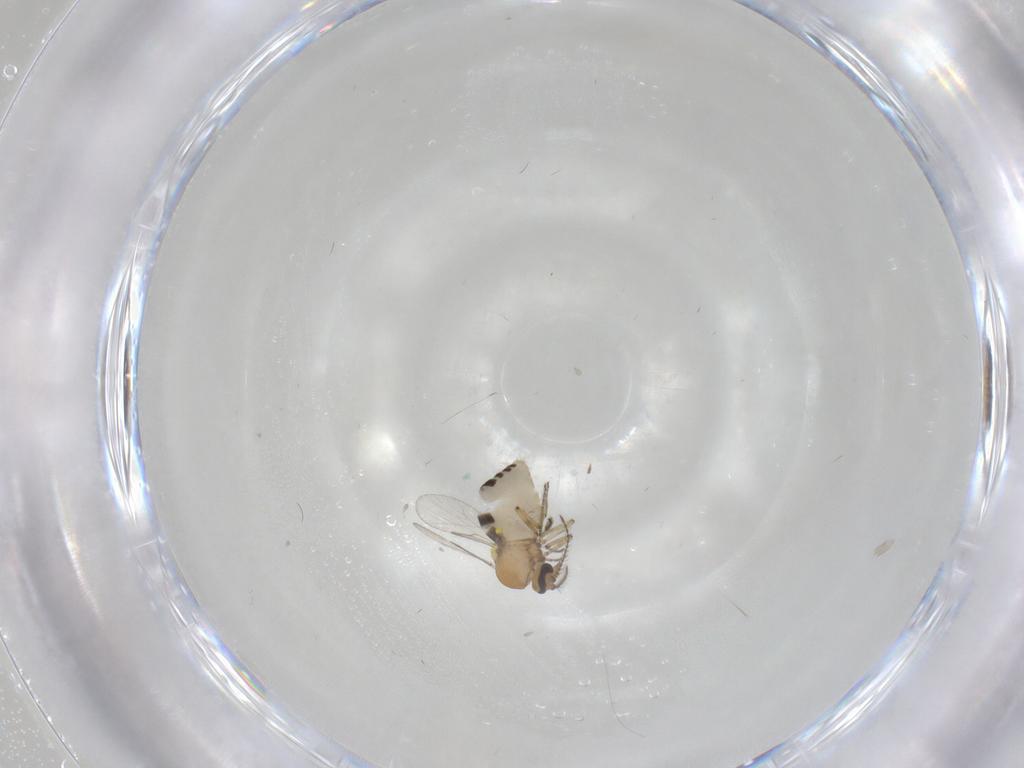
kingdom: Animalia
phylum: Arthropoda
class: Insecta
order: Diptera
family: Ceratopogonidae
